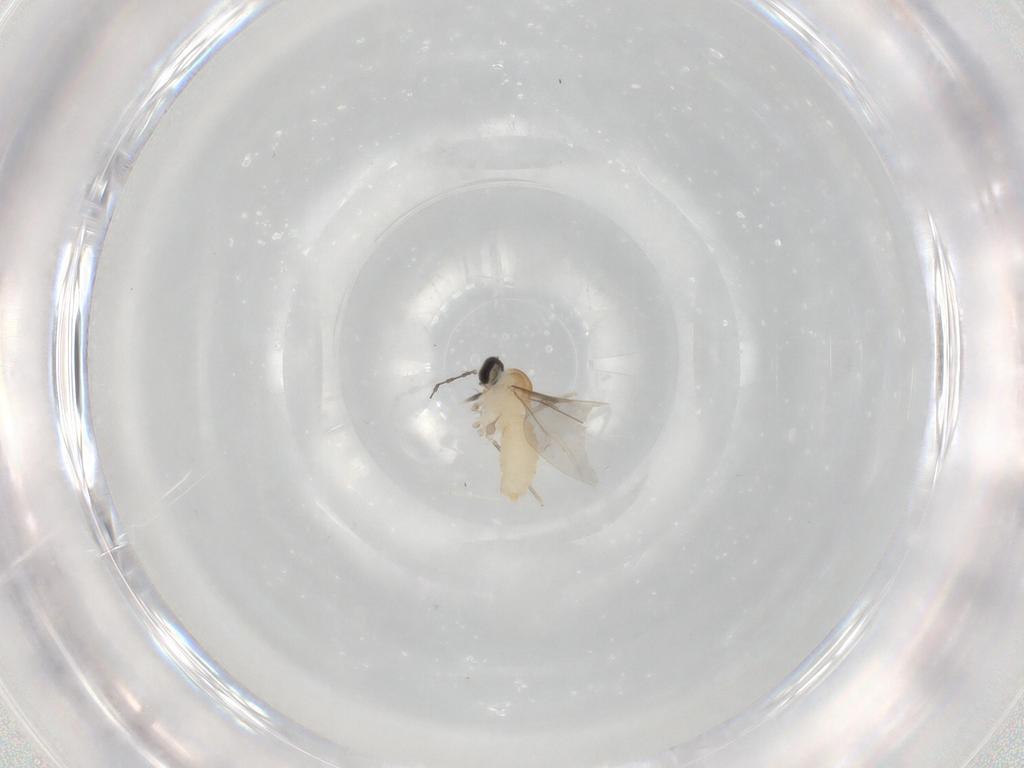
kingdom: Animalia
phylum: Arthropoda
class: Insecta
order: Diptera
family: Cecidomyiidae
